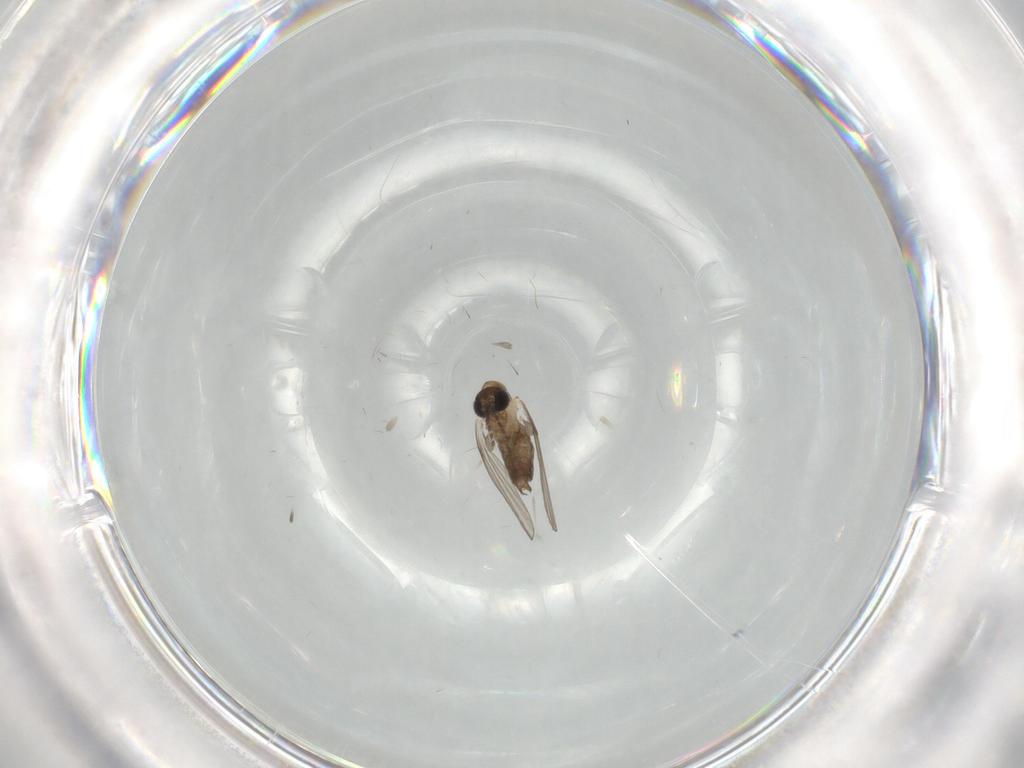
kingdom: Animalia
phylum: Arthropoda
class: Insecta
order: Diptera
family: Psychodidae
